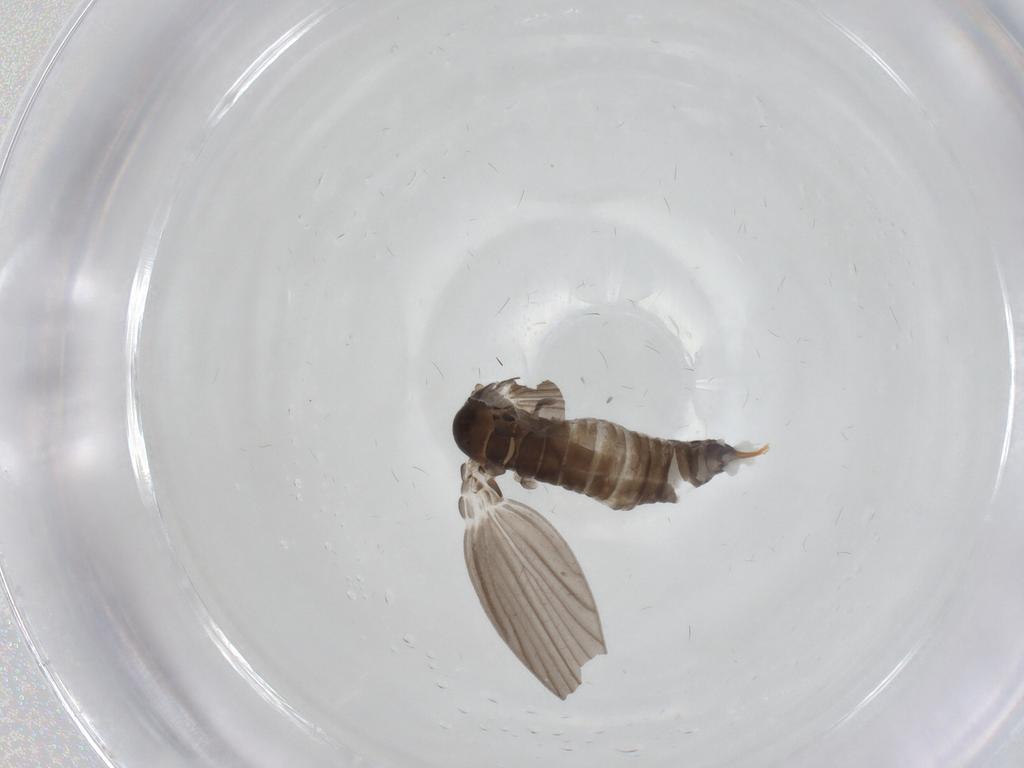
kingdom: Animalia
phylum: Arthropoda
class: Insecta
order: Diptera
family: Psychodidae
